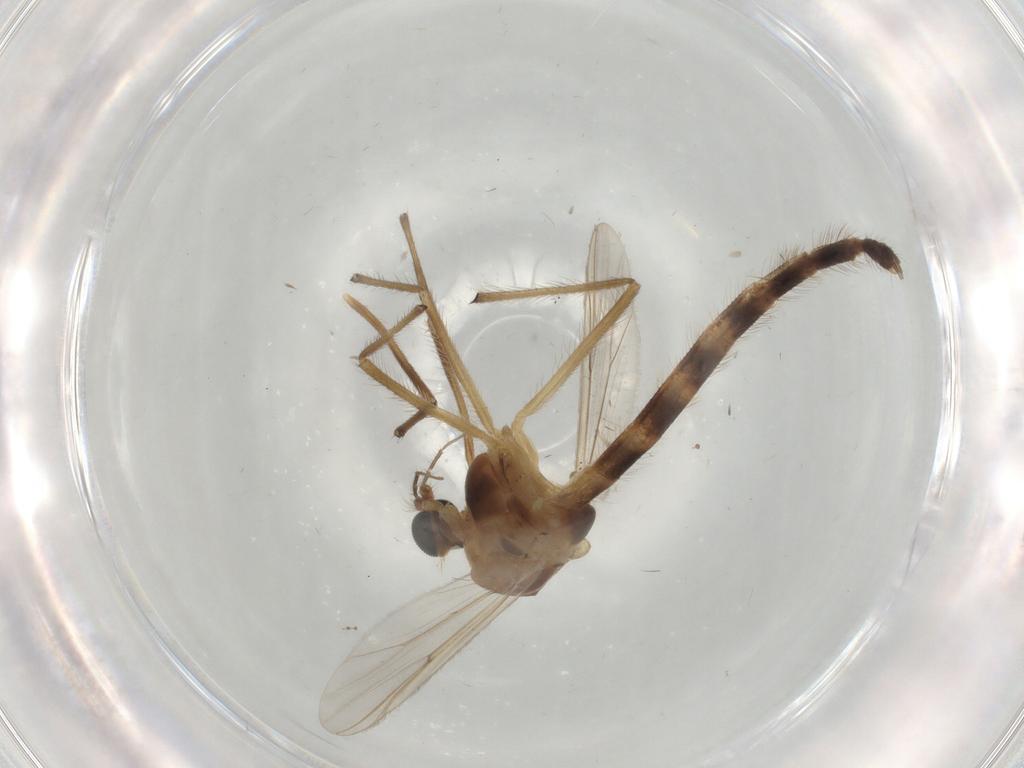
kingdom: Animalia
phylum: Arthropoda
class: Insecta
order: Diptera
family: Chironomidae
